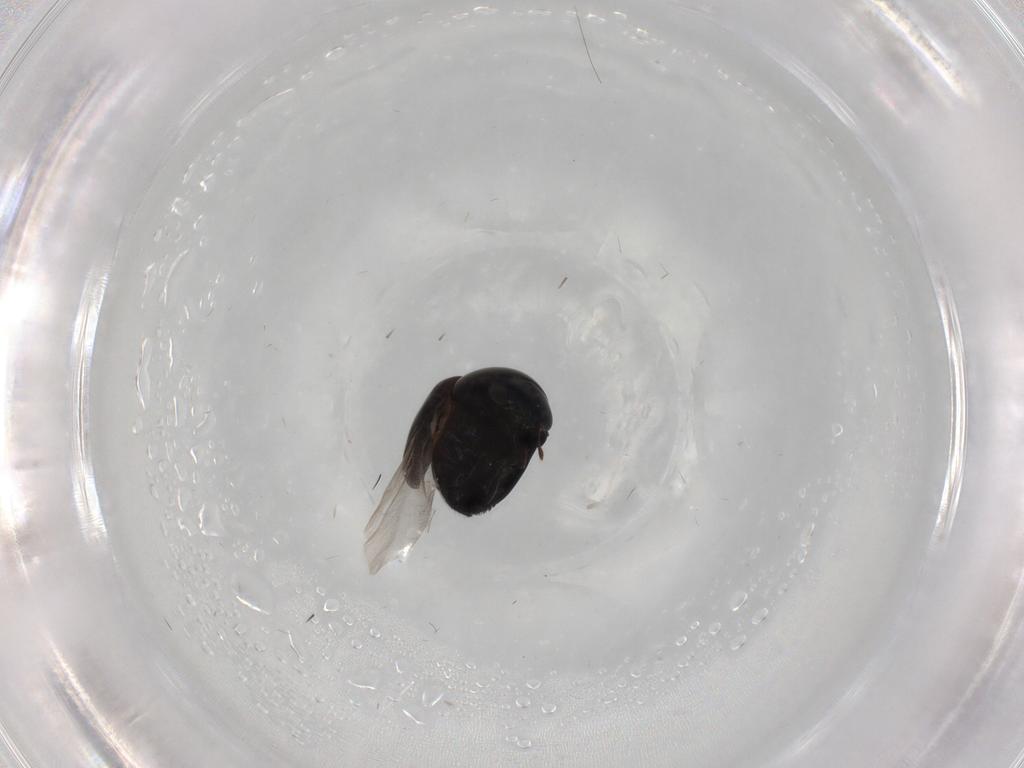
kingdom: Animalia
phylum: Arthropoda
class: Insecta
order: Coleoptera
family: Cybocephalidae
